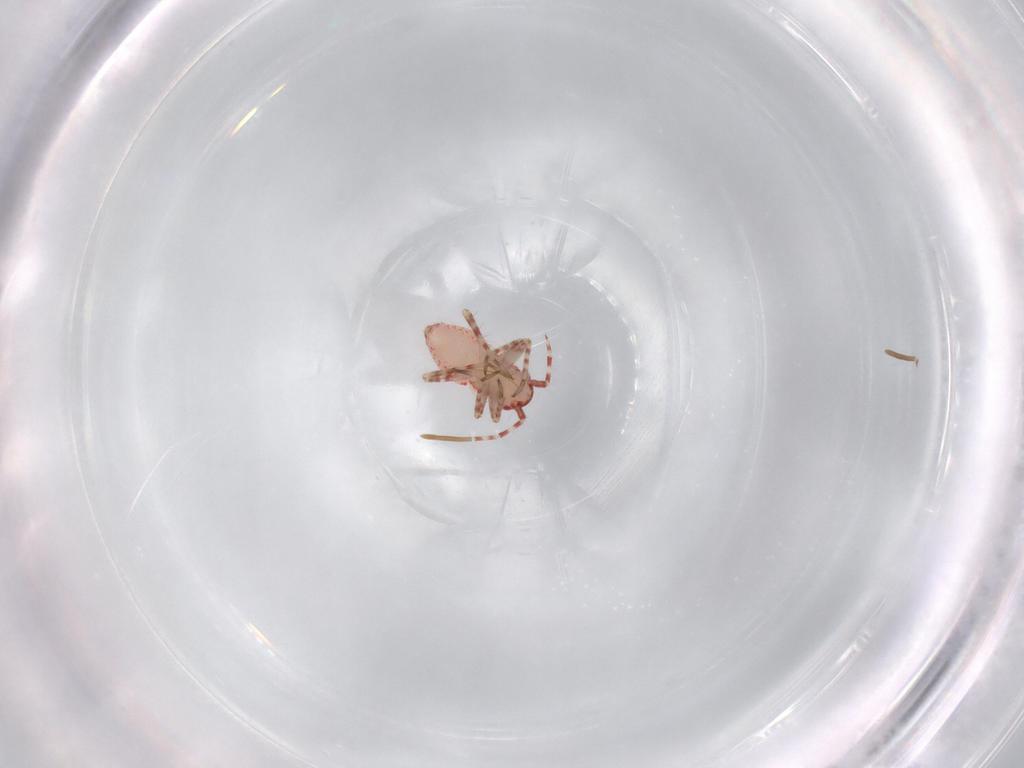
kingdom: Animalia
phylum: Arthropoda
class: Insecta
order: Hemiptera
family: Miridae
